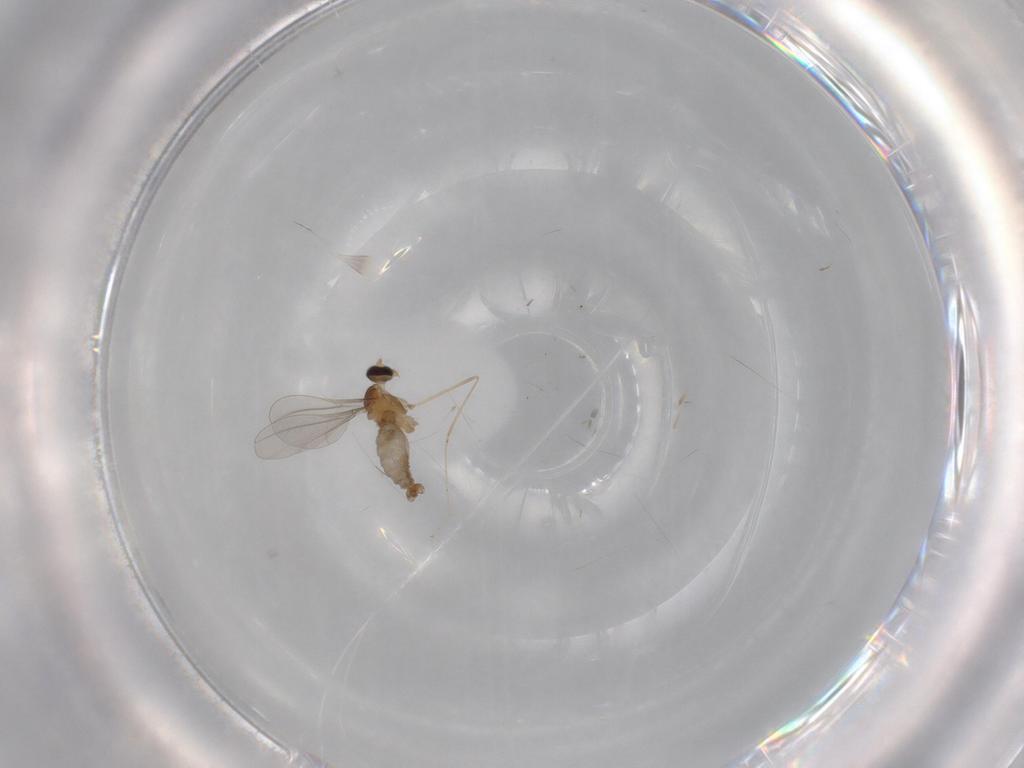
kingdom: Animalia
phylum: Arthropoda
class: Insecta
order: Diptera
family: Cecidomyiidae
